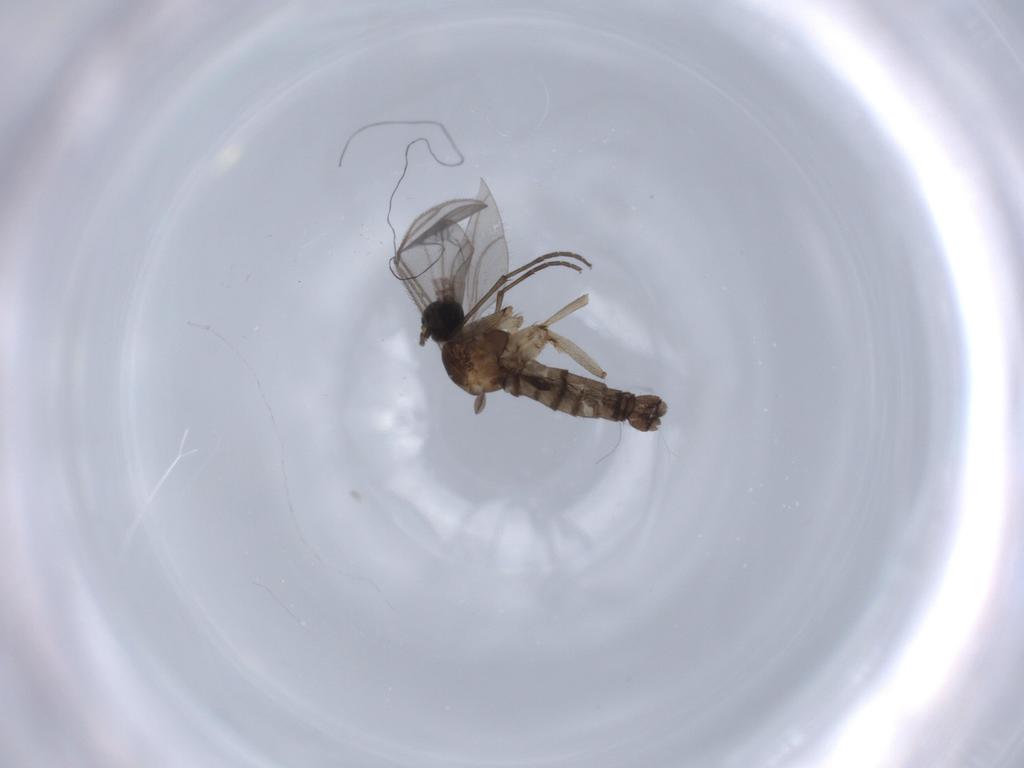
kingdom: Animalia
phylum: Arthropoda
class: Insecta
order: Diptera
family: Sciaridae
